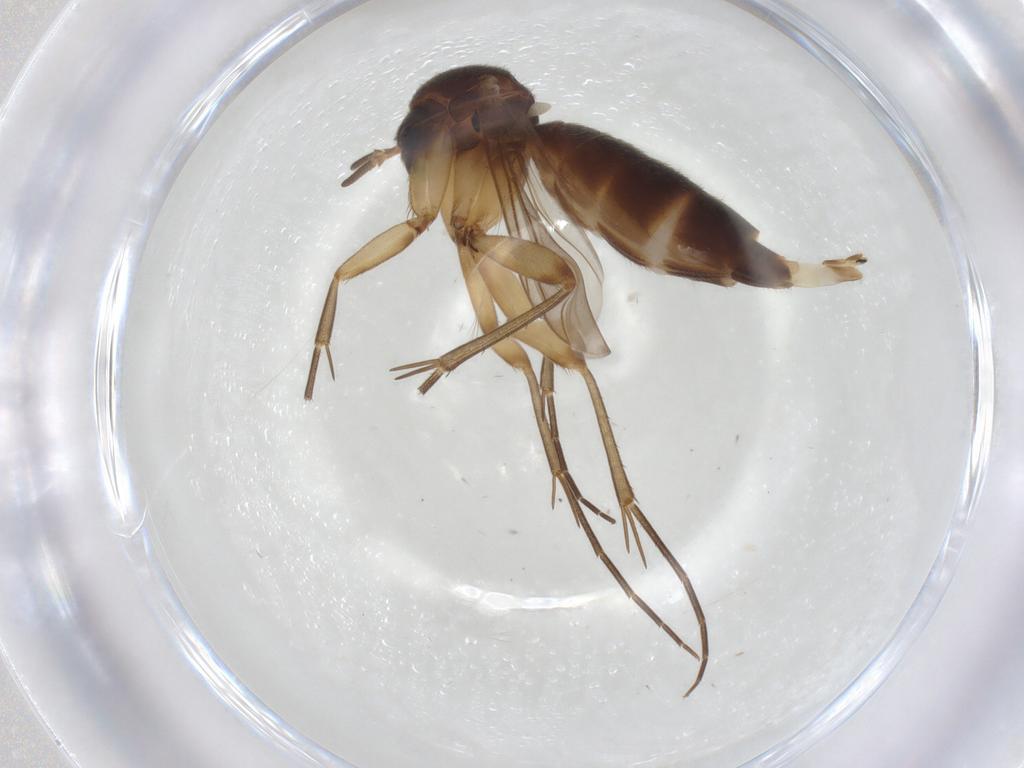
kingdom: Animalia
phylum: Arthropoda
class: Insecta
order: Diptera
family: Mycetophilidae
